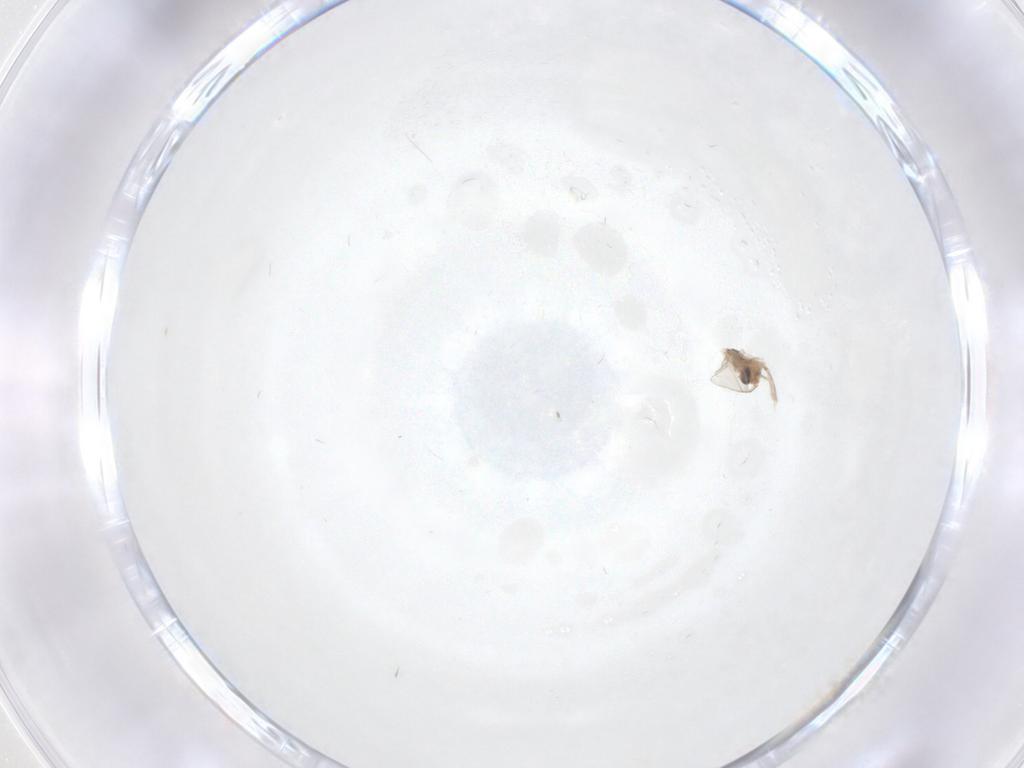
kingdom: Animalia
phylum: Arthropoda
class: Insecta
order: Diptera
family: Cecidomyiidae
